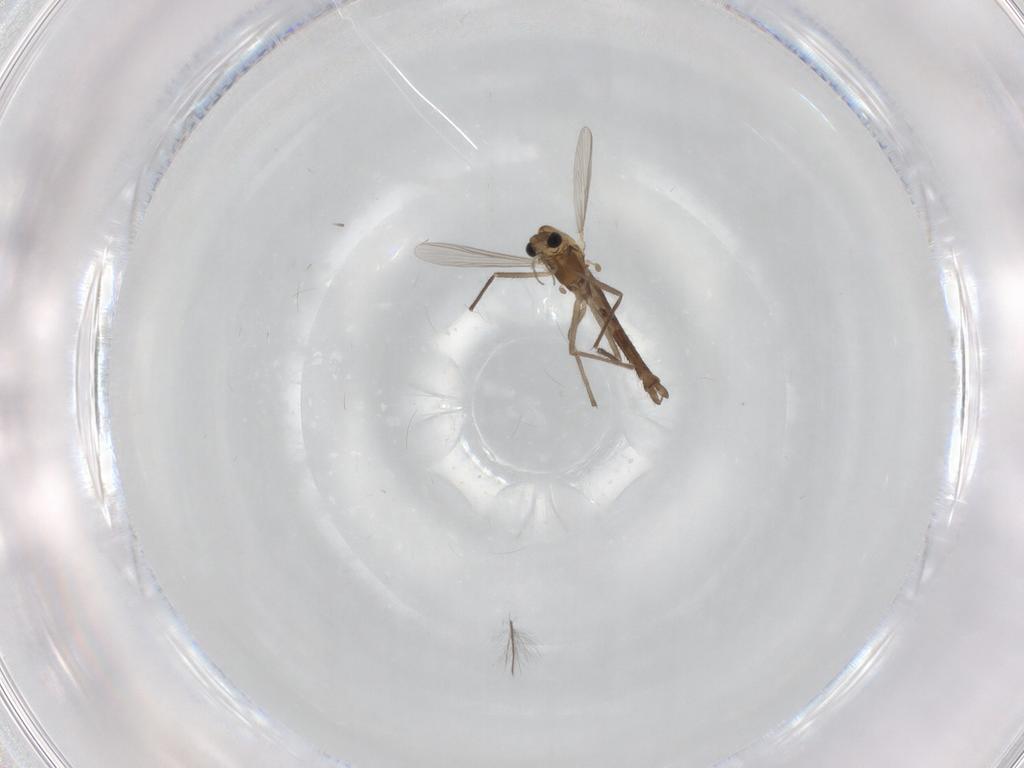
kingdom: Animalia
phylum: Arthropoda
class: Insecta
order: Diptera
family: Chironomidae
